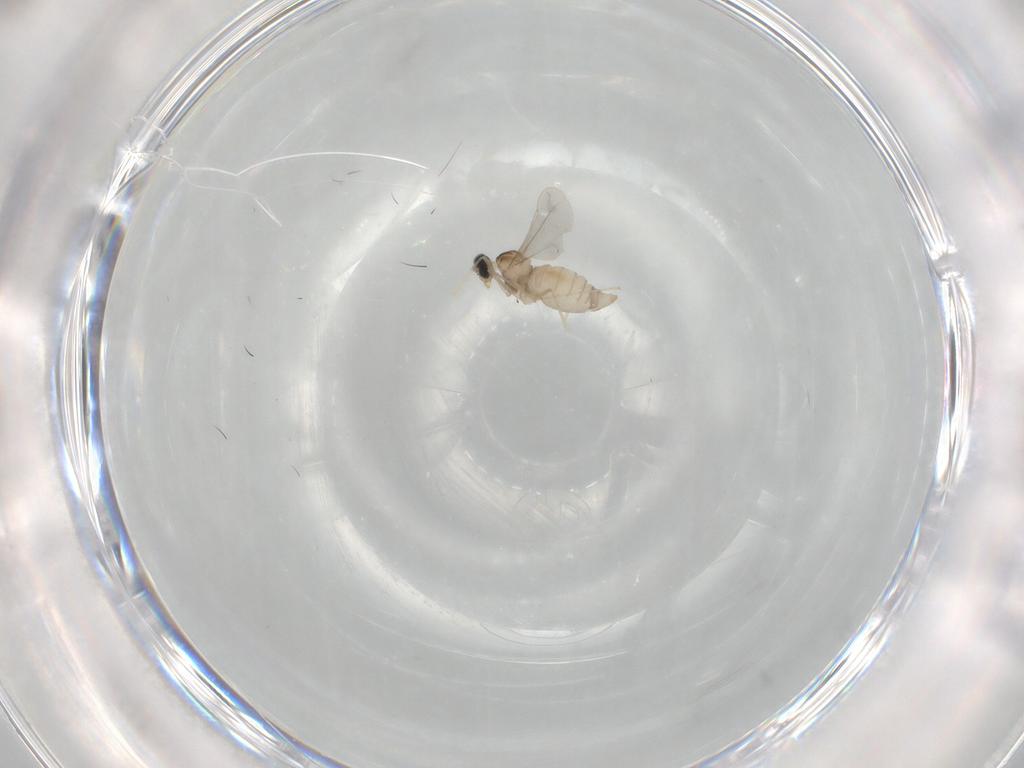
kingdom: Animalia
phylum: Arthropoda
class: Insecta
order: Diptera
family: Cecidomyiidae
